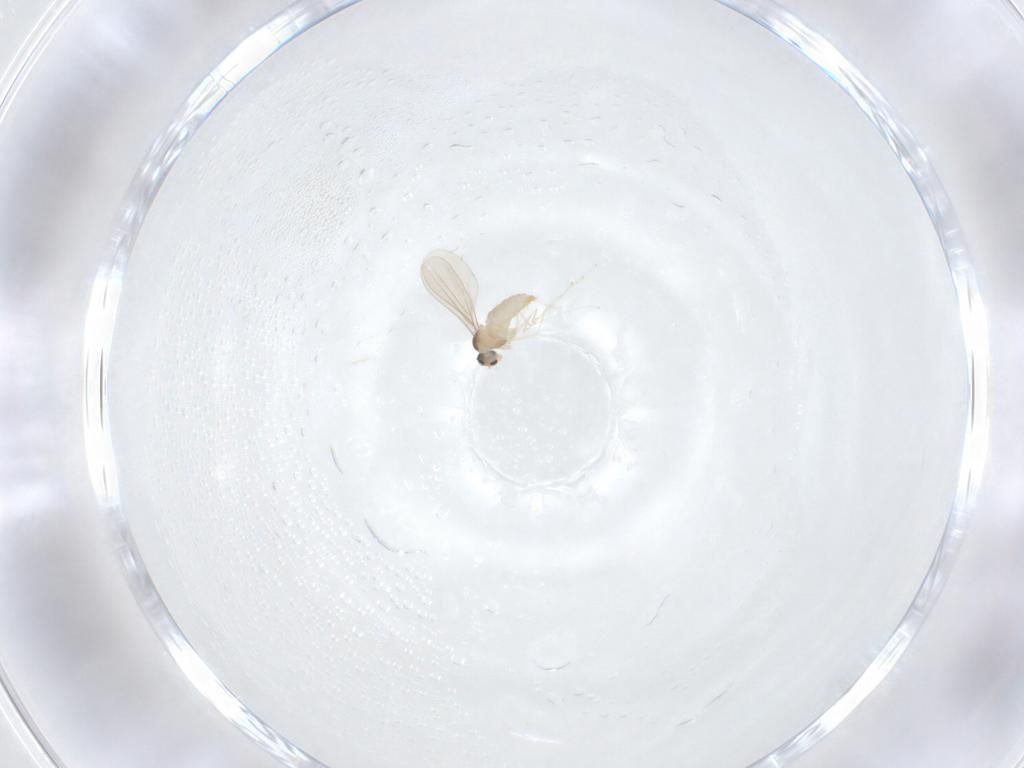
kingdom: Animalia
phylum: Arthropoda
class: Insecta
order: Diptera
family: Cecidomyiidae
